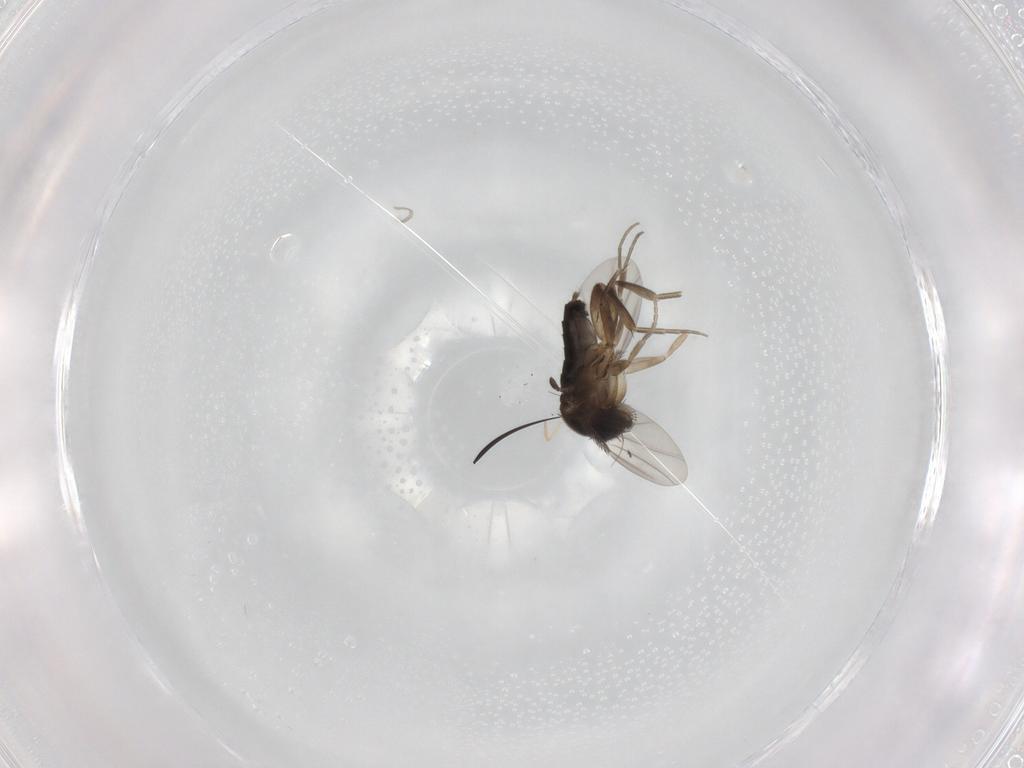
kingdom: Animalia
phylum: Arthropoda
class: Insecta
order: Diptera
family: Phoridae
